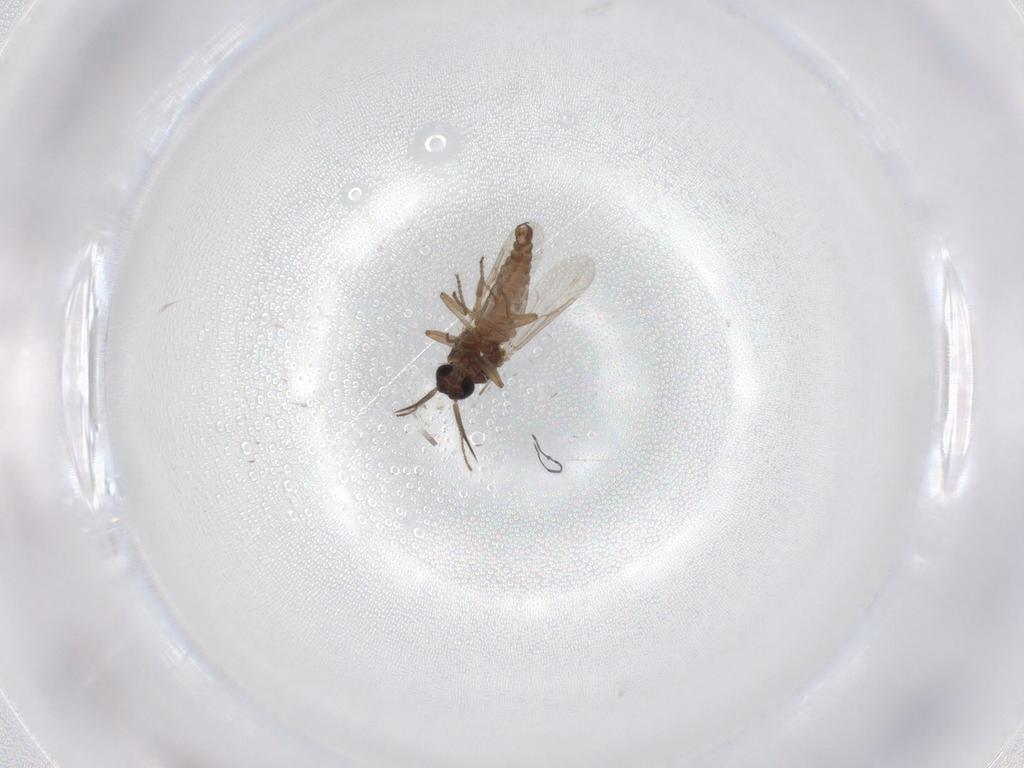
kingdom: Animalia
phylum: Arthropoda
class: Insecta
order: Diptera
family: Ceratopogonidae
